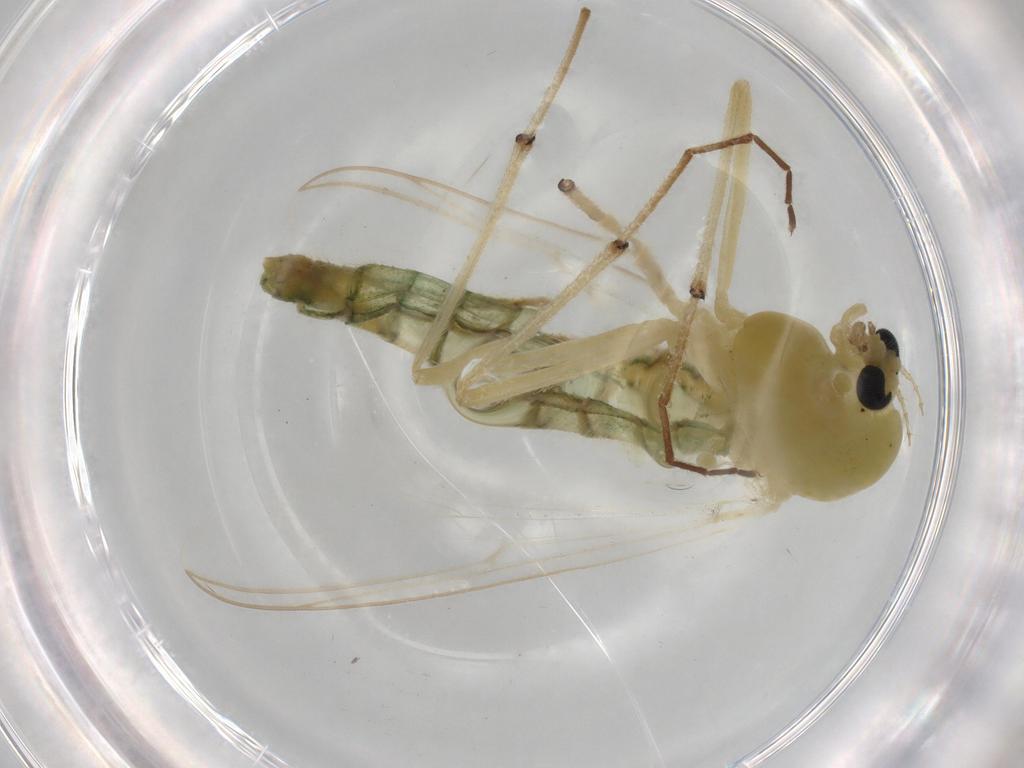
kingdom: Animalia
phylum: Arthropoda
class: Insecta
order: Diptera
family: Chironomidae
